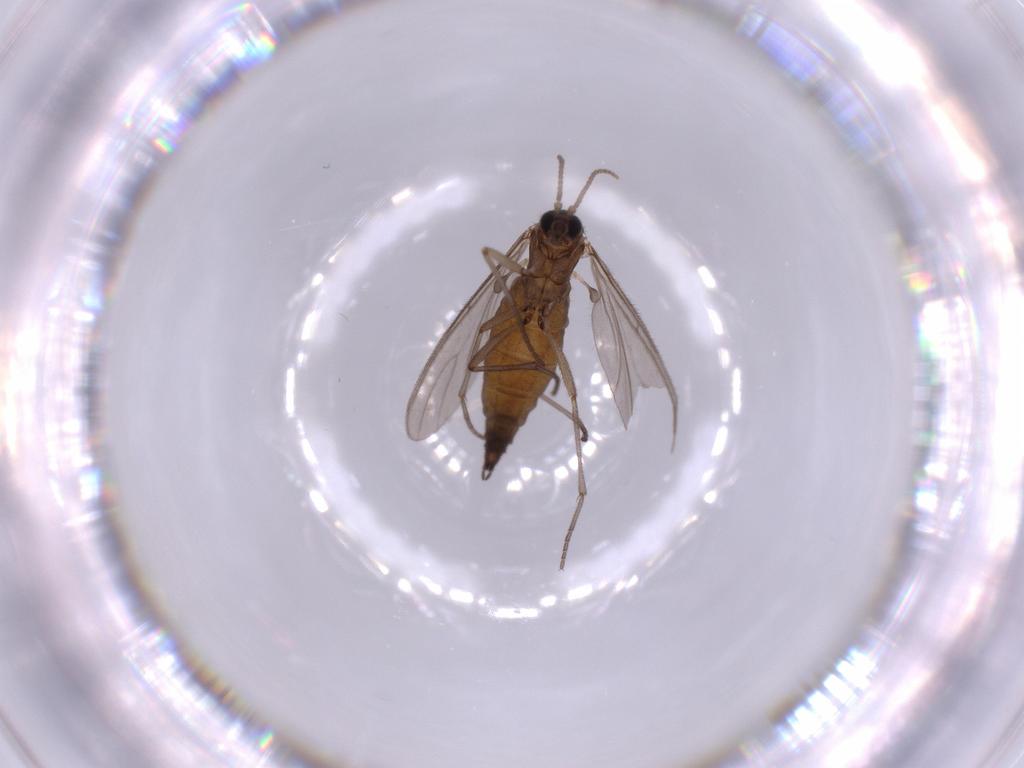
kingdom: Animalia
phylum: Arthropoda
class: Insecta
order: Diptera
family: Sciaridae
